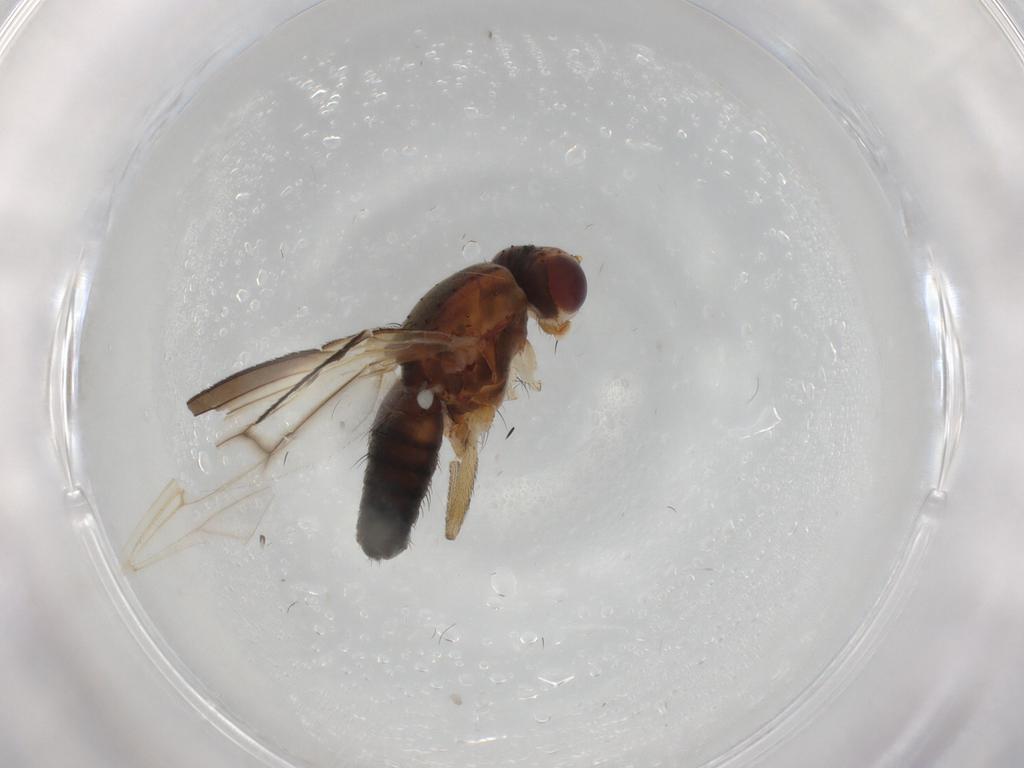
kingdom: Animalia
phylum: Arthropoda
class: Insecta
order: Diptera
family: Heleomyzidae
